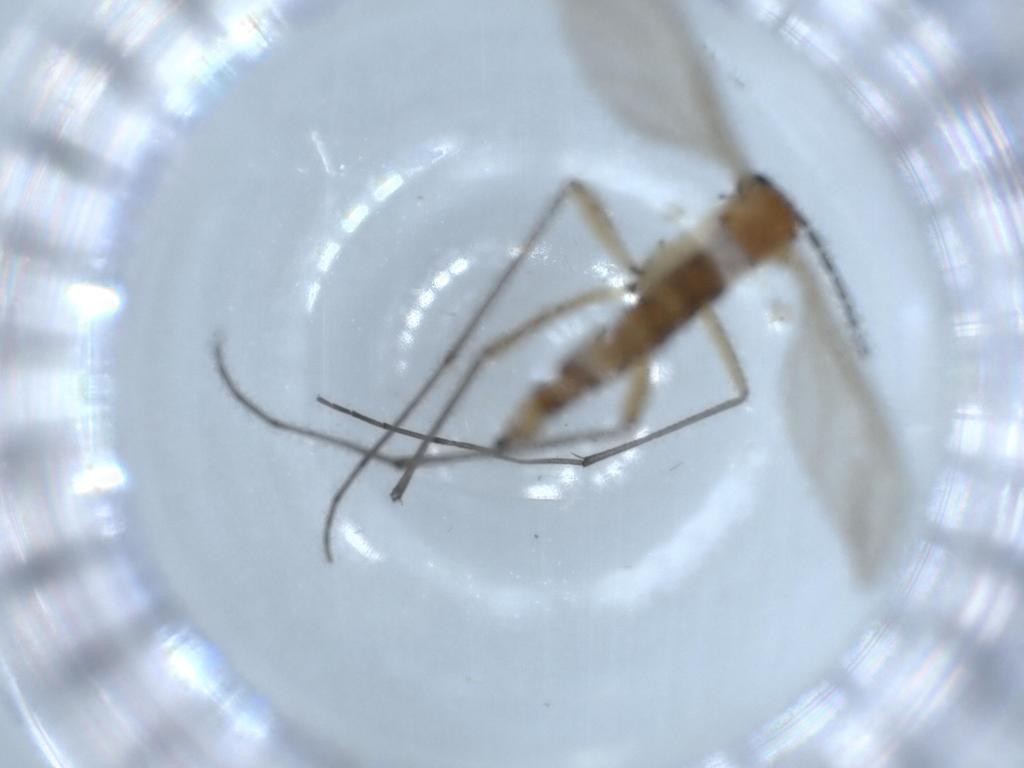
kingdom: Animalia
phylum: Arthropoda
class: Insecta
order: Diptera
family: Sciaridae
